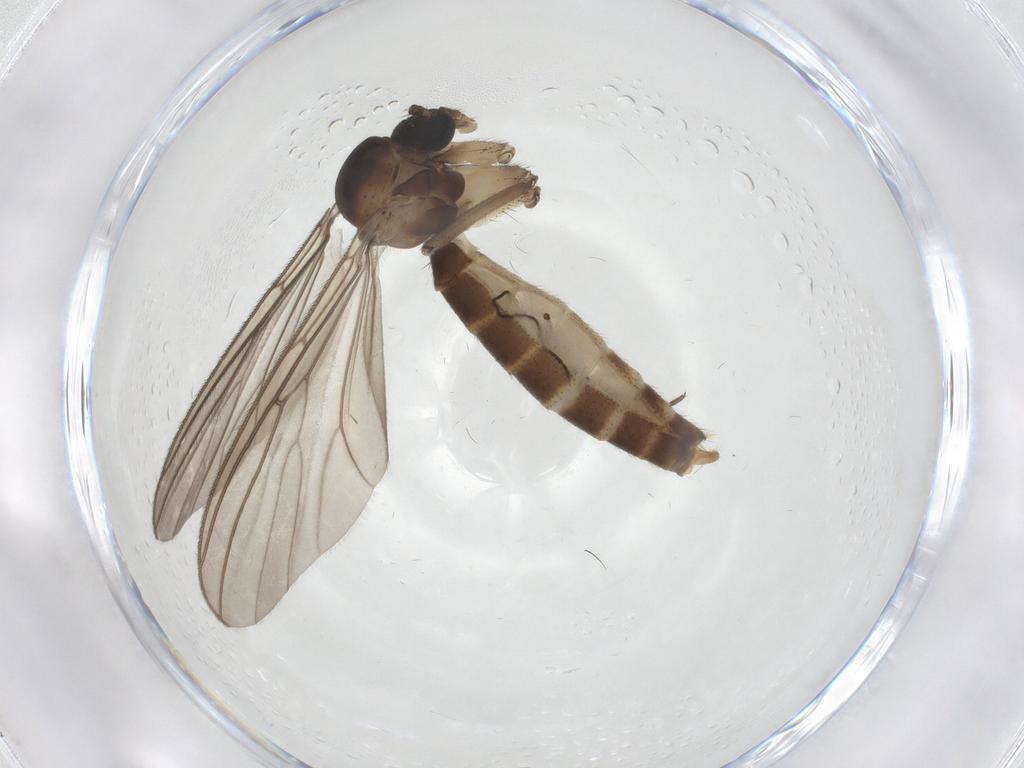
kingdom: Animalia
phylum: Arthropoda
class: Insecta
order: Diptera
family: Mycetophilidae
